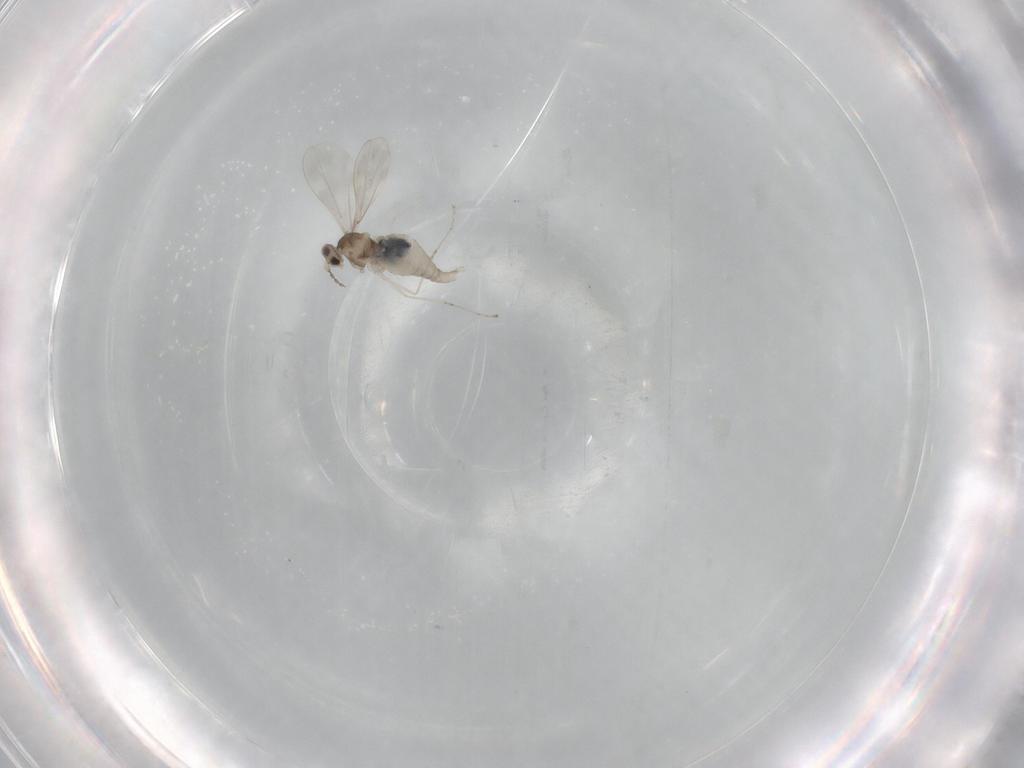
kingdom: Animalia
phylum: Arthropoda
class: Insecta
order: Diptera
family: Cecidomyiidae
